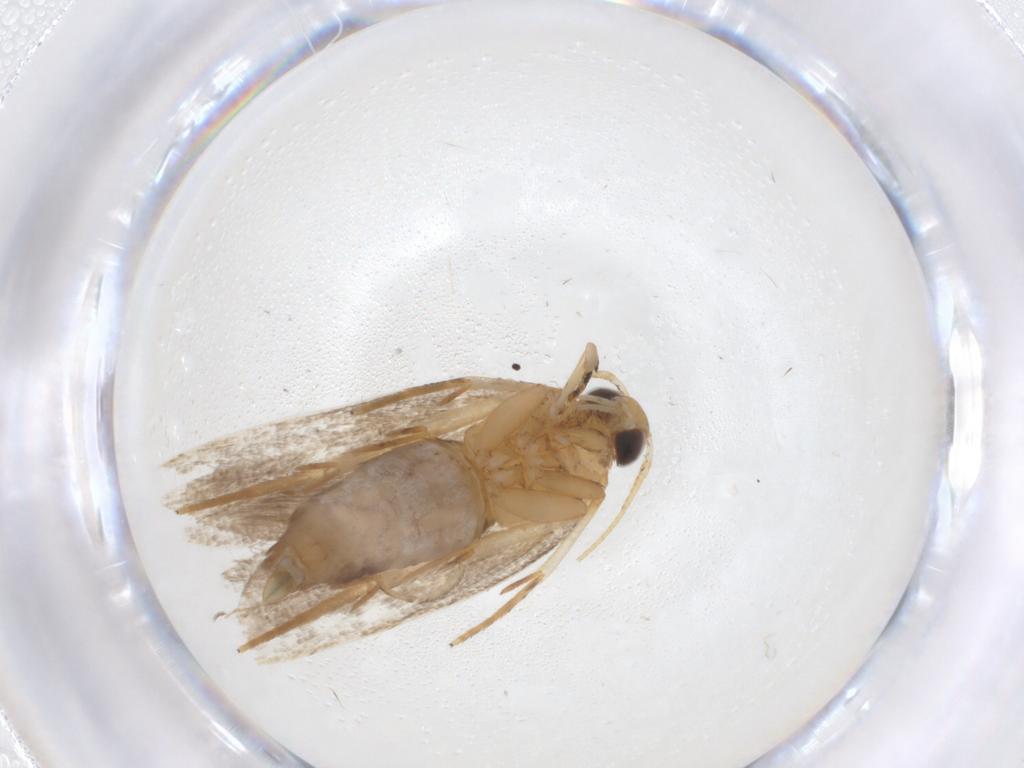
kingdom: Animalia
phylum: Arthropoda
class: Insecta
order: Lepidoptera
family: Oecophoridae
